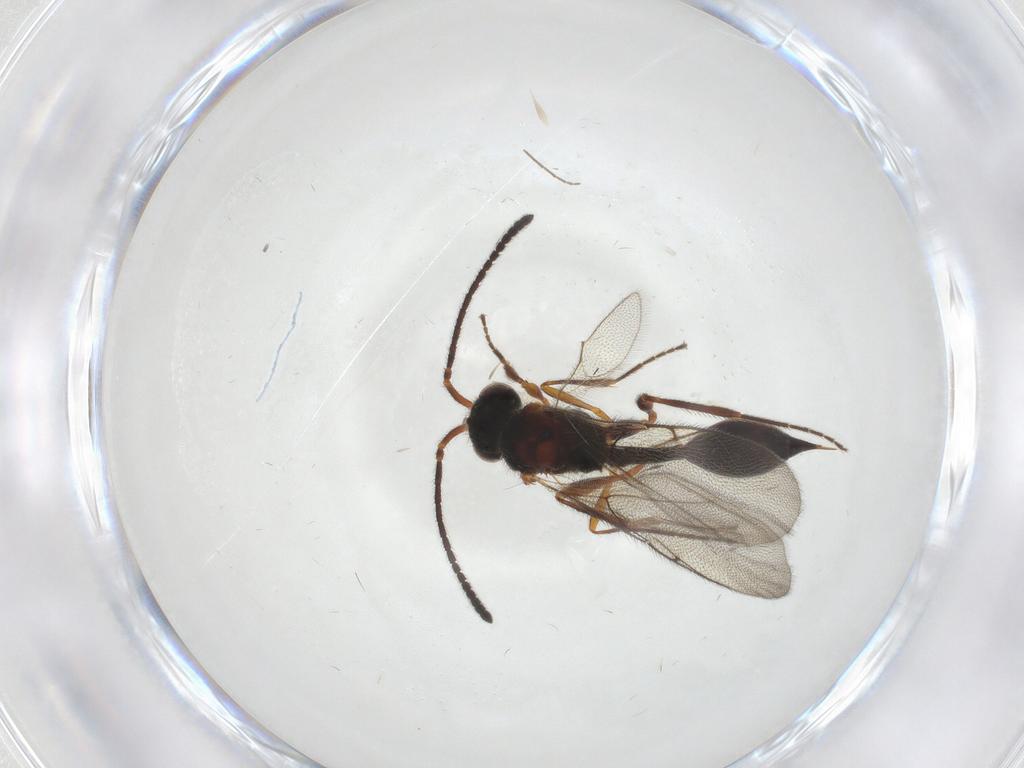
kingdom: Animalia
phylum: Arthropoda
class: Insecta
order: Hymenoptera
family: Diapriidae
